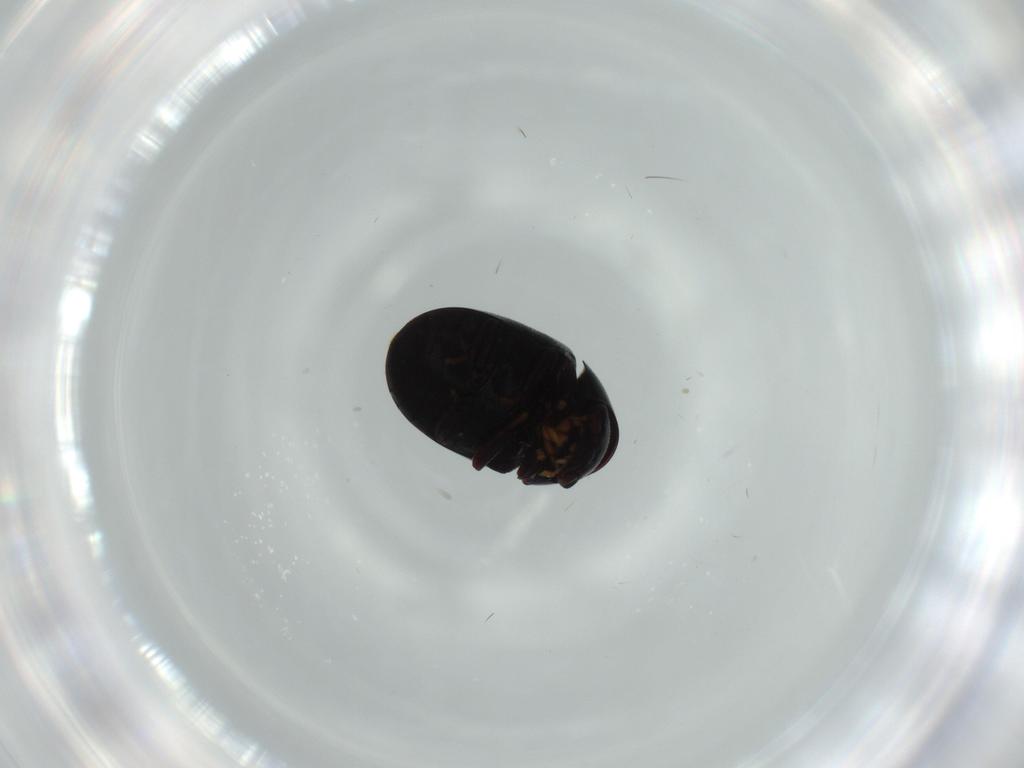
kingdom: Animalia
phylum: Arthropoda
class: Insecta
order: Coleoptera
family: Ptinidae
